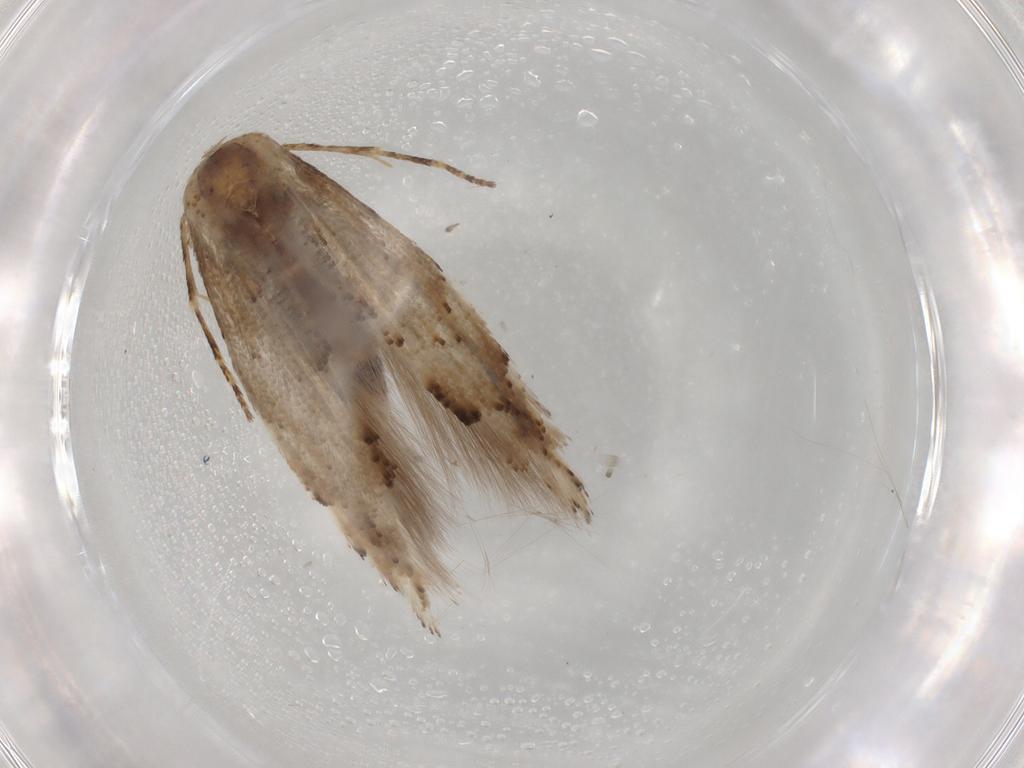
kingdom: Animalia
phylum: Arthropoda
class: Insecta
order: Lepidoptera
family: Gracillariidae
